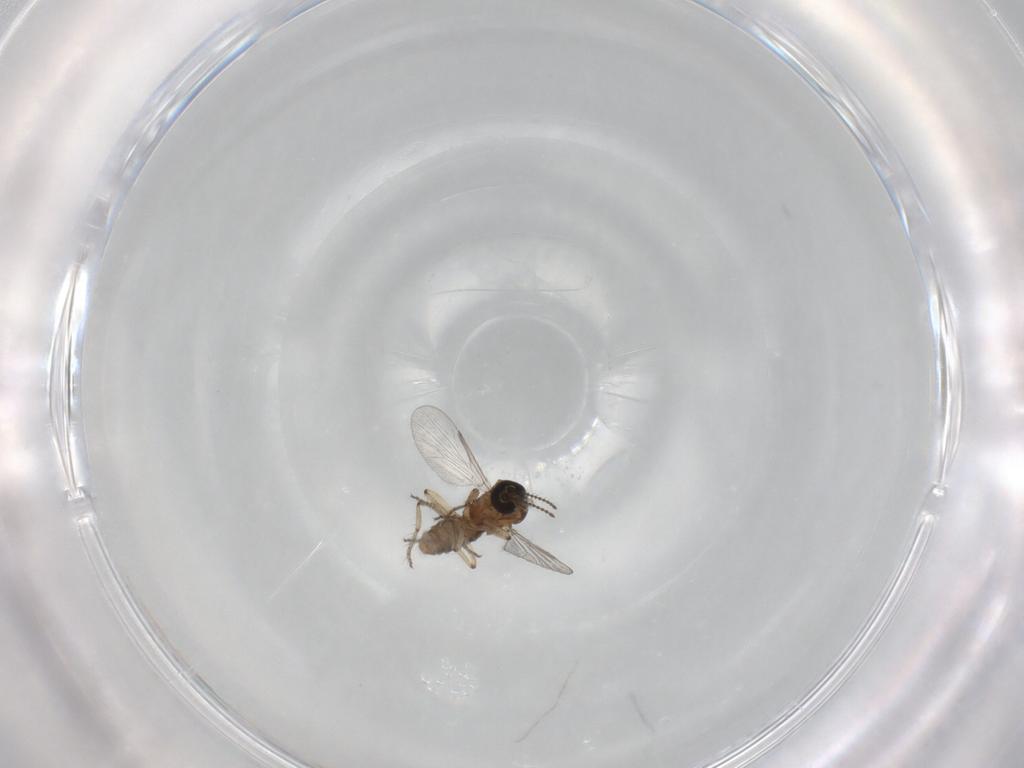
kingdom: Animalia
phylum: Arthropoda
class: Insecta
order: Diptera
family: Ceratopogonidae
